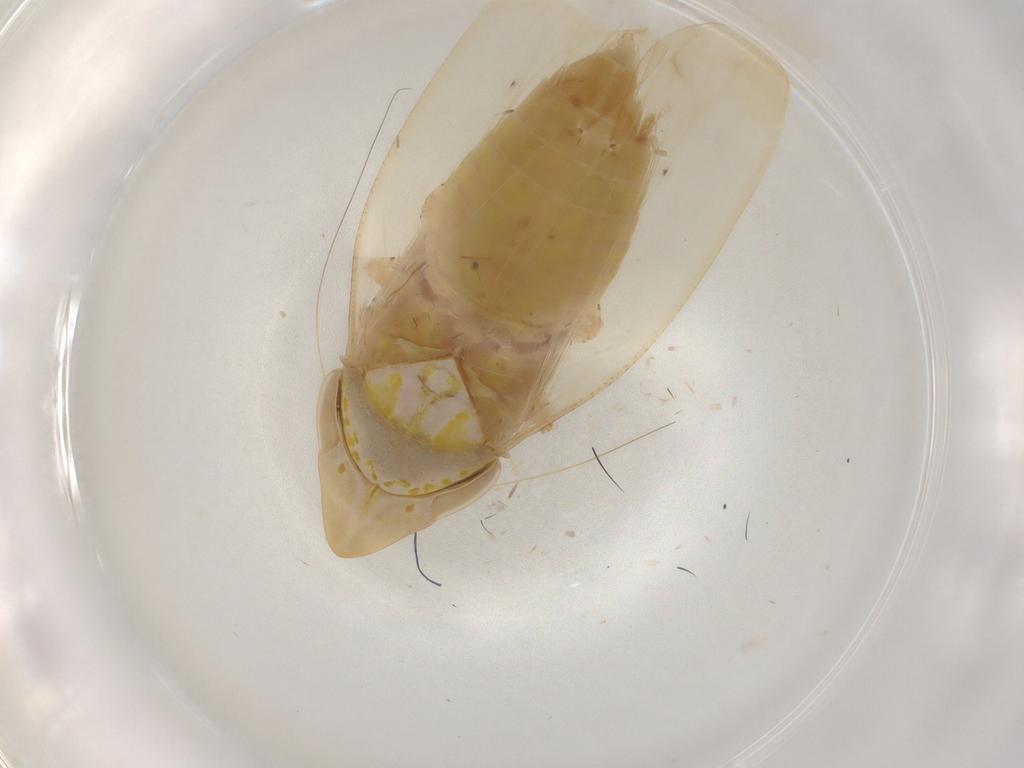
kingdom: Animalia
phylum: Arthropoda
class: Insecta
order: Hemiptera
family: Cicadellidae
